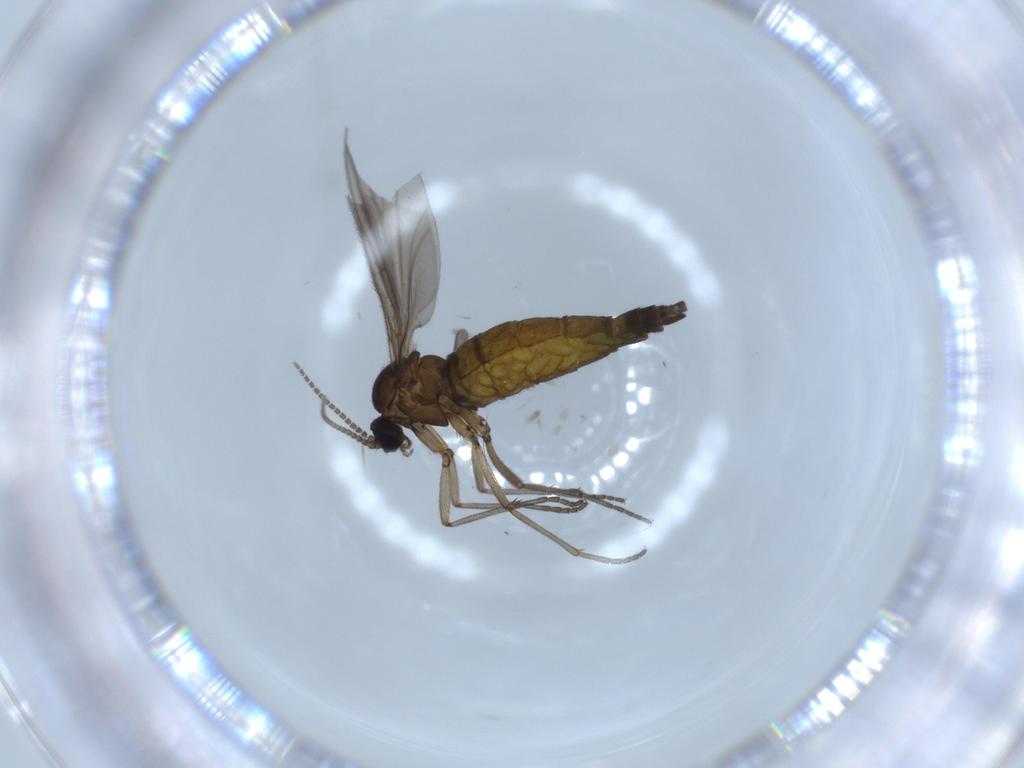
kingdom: Animalia
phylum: Arthropoda
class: Insecta
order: Diptera
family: Sciaridae
